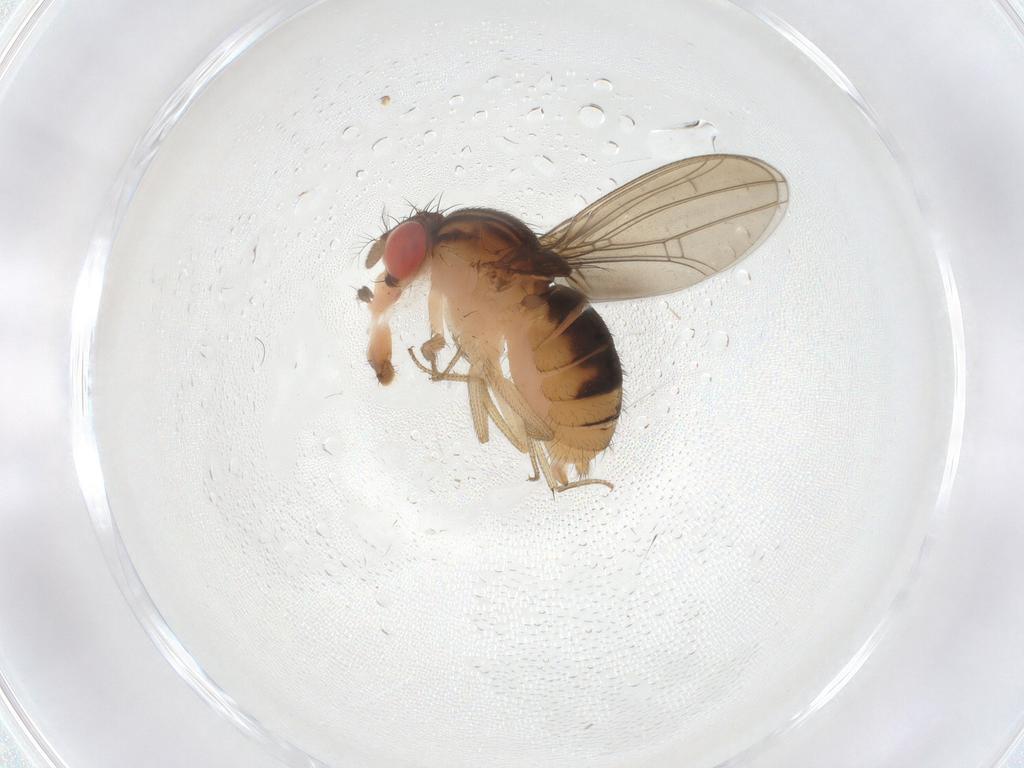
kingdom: Animalia
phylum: Arthropoda
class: Insecta
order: Diptera
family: Drosophilidae
